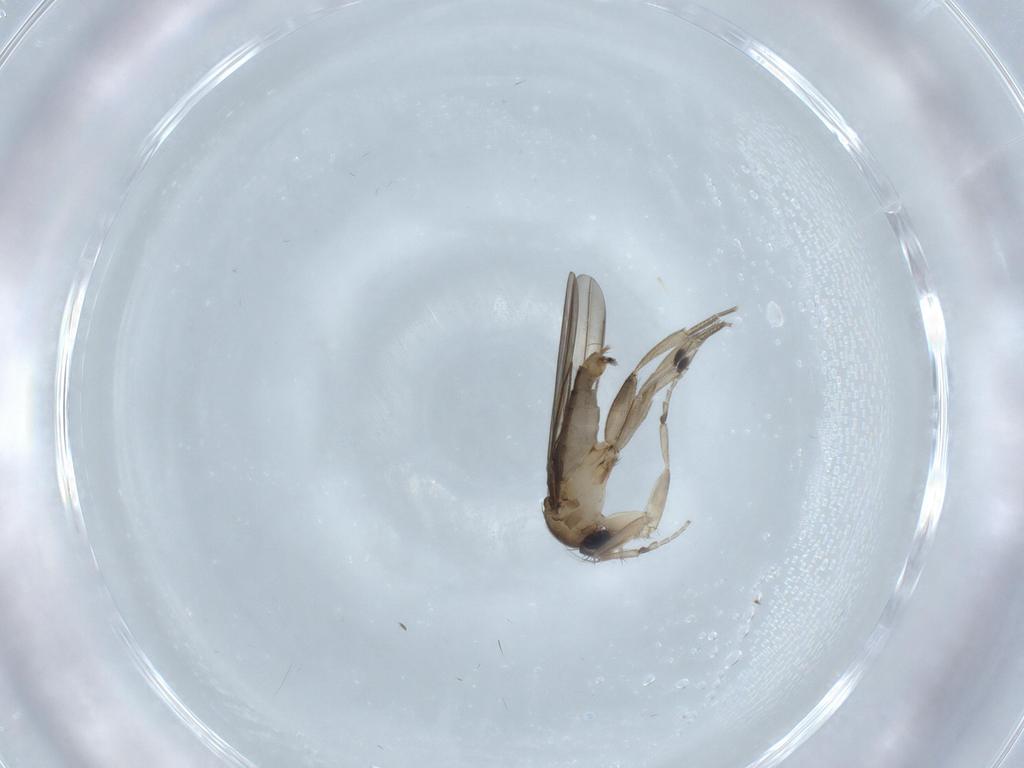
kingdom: Animalia
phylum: Arthropoda
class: Insecta
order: Diptera
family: Phoridae
